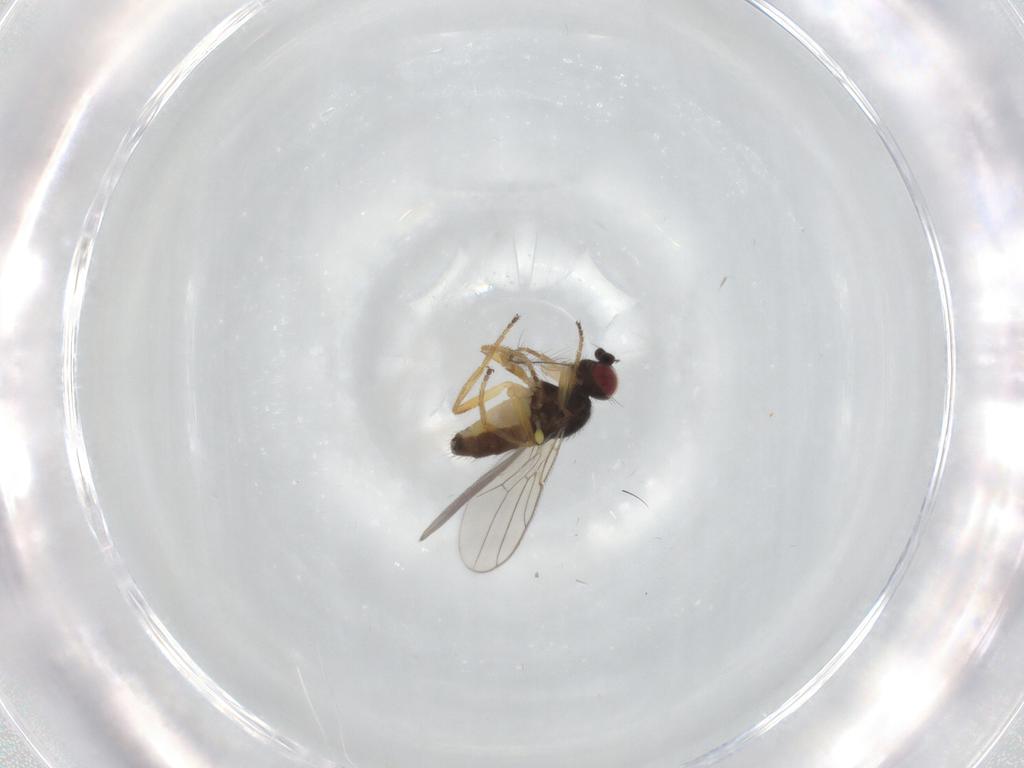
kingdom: Animalia
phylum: Arthropoda
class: Insecta
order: Diptera
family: Chloropidae
